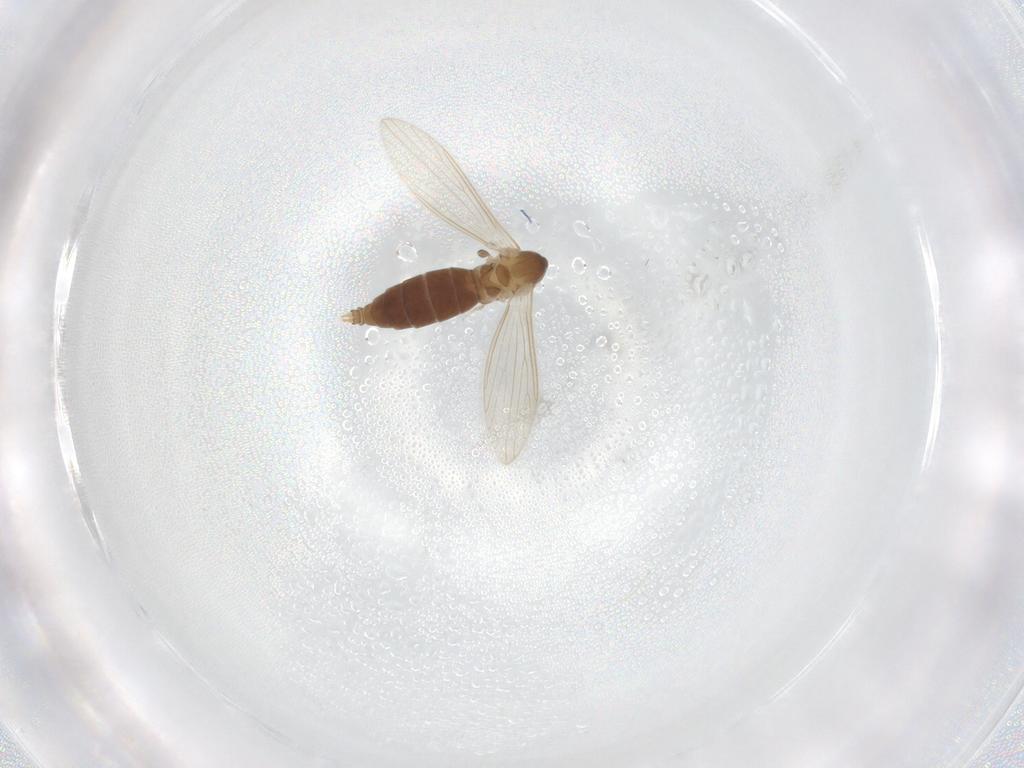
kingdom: Animalia
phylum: Arthropoda
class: Insecta
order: Diptera
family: Psychodidae
